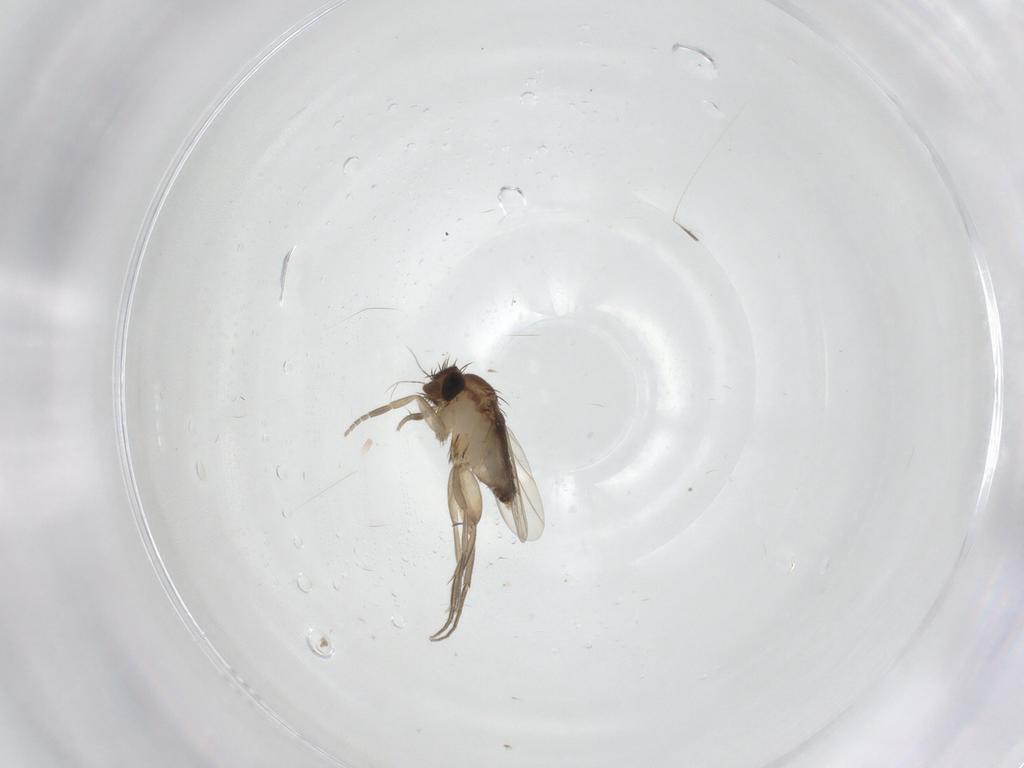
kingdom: Animalia
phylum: Arthropoda
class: Insecta
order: Diptera
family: Phoridae
